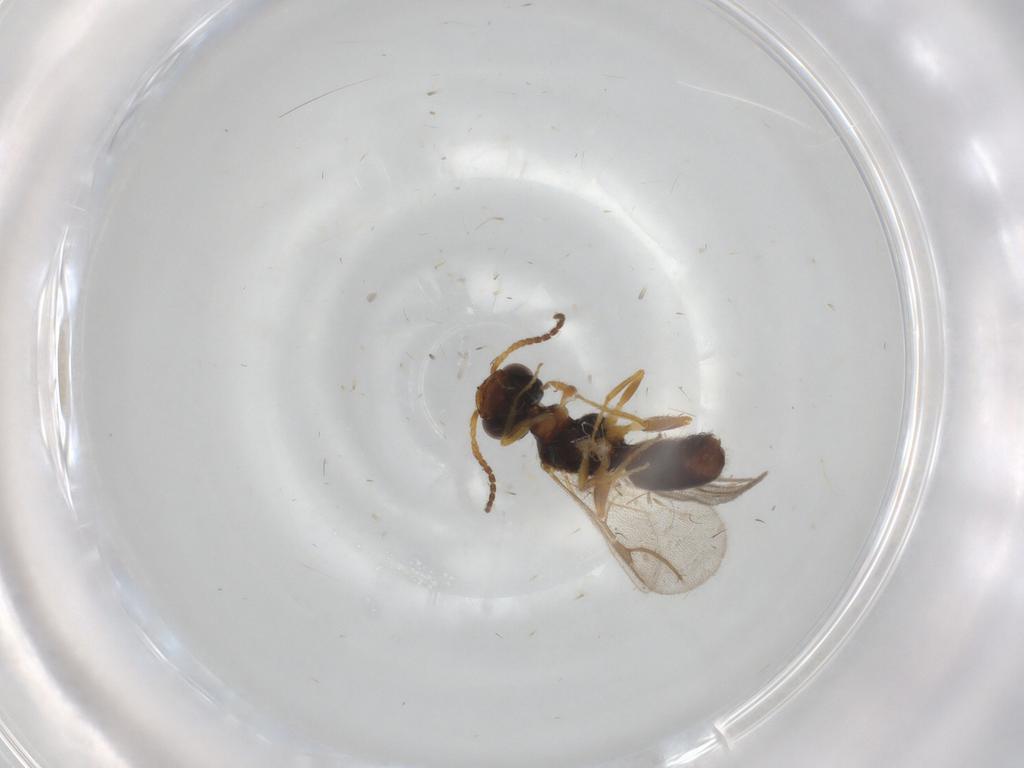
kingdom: Animalia
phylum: Arthropoda
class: Insecta
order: Hymenoptera
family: Bethylidae
